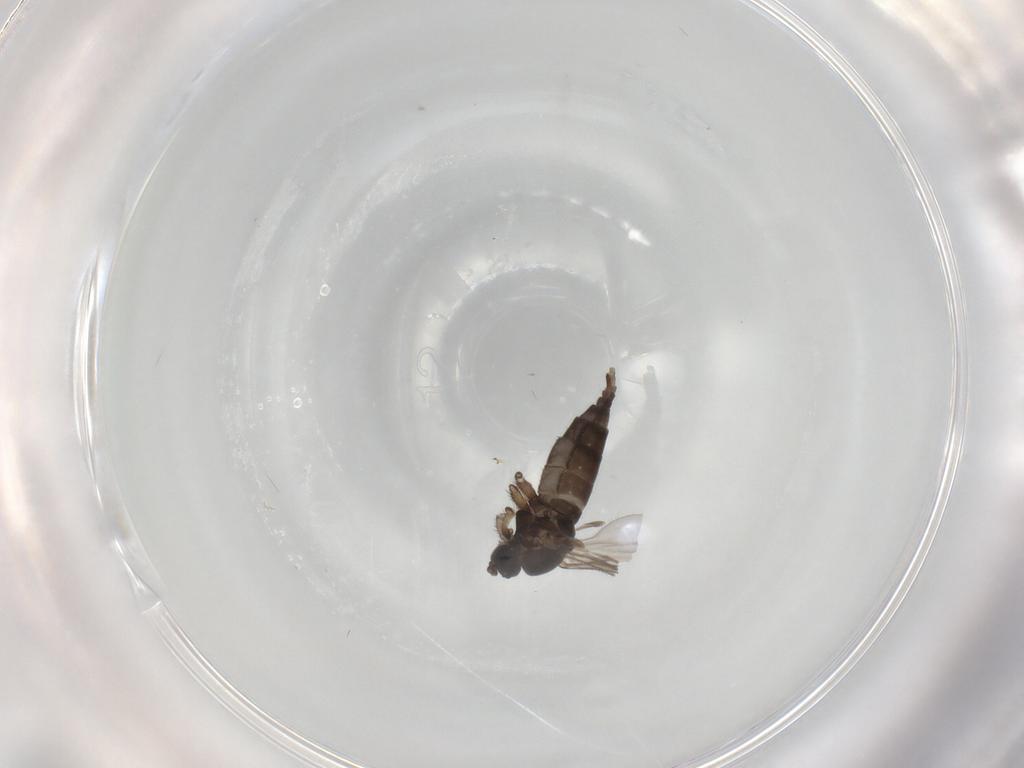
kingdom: Animalia
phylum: Arthropoda
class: Insecta
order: Diptera
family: Sciaridae
